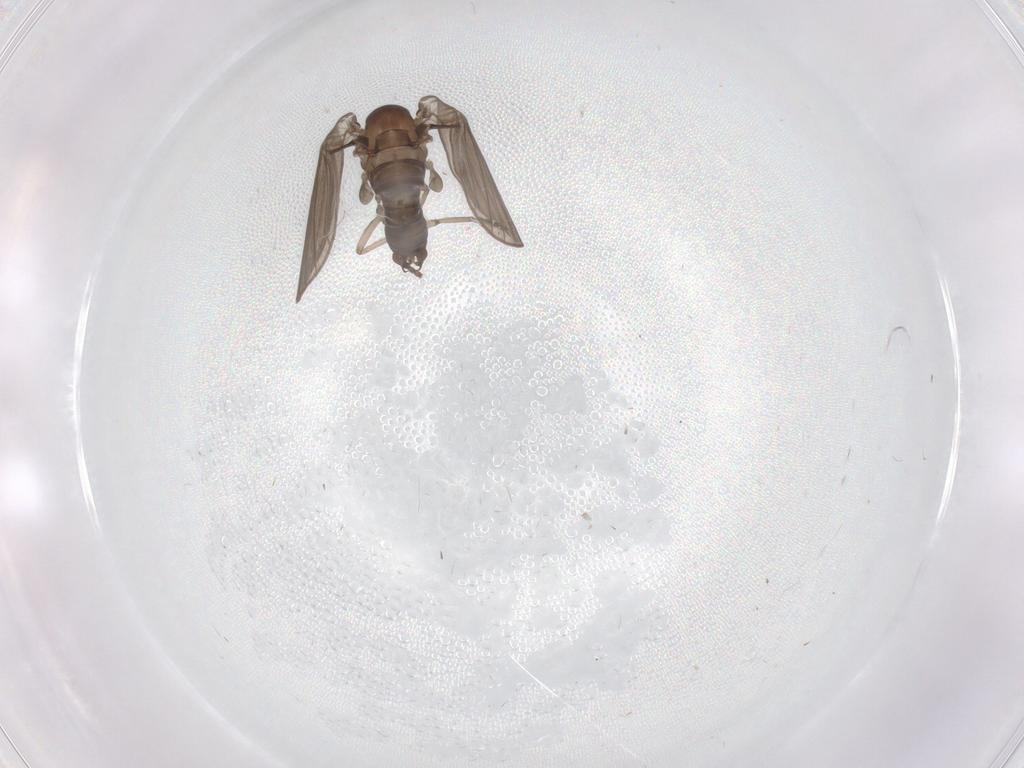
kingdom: Animalia
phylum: Arthropoda
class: Insecta
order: Diptera
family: Psychodidae
